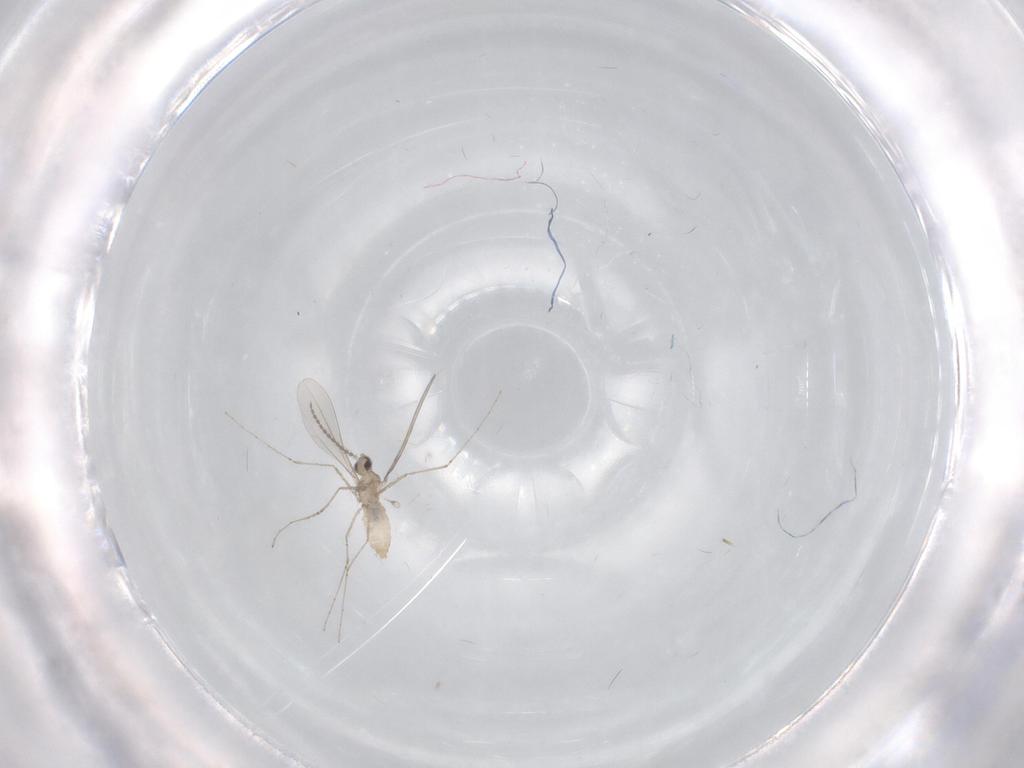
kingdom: Animalia
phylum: Arthropoda
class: Insecta
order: Diptera
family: Cecidomyiidae
